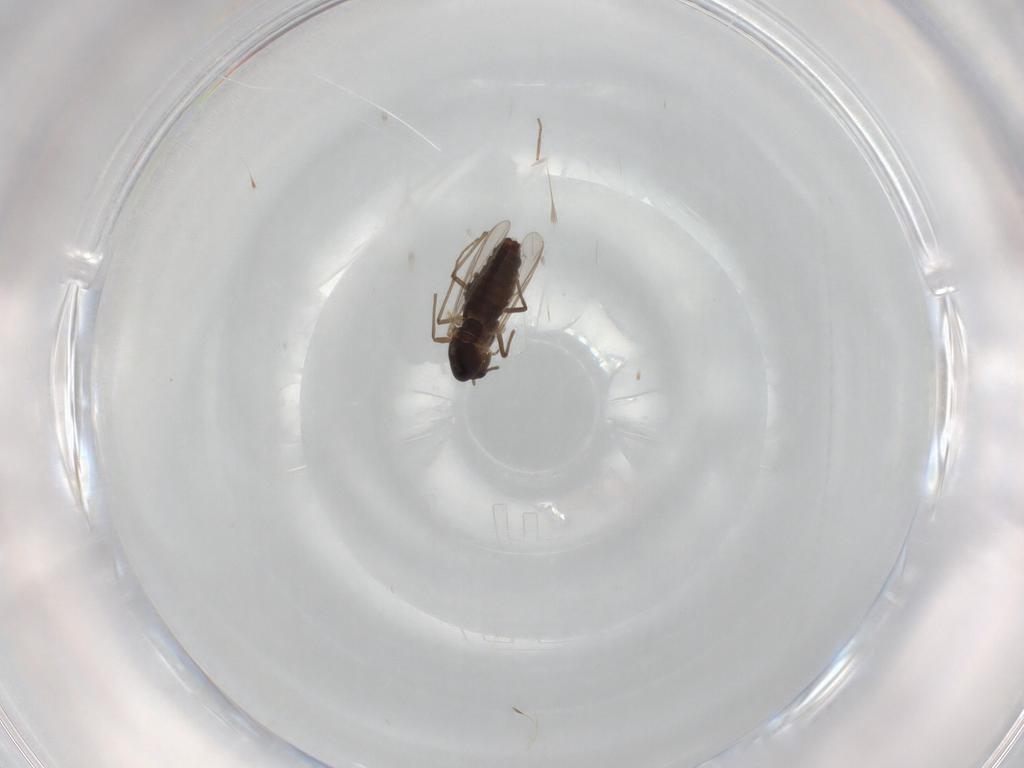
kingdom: Animalia
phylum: Arthropoda
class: Insecta
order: Diptera
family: Chironomidae
